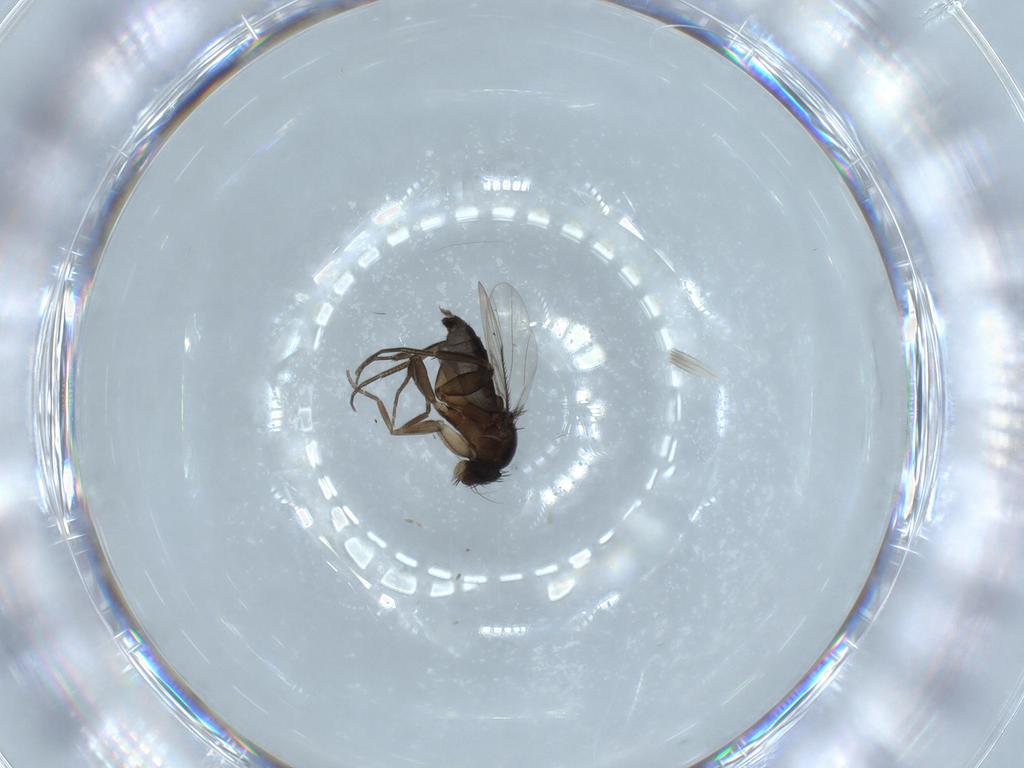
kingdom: Animalia
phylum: Arthropoda
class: Insecta
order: Diptera
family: Phoridae
